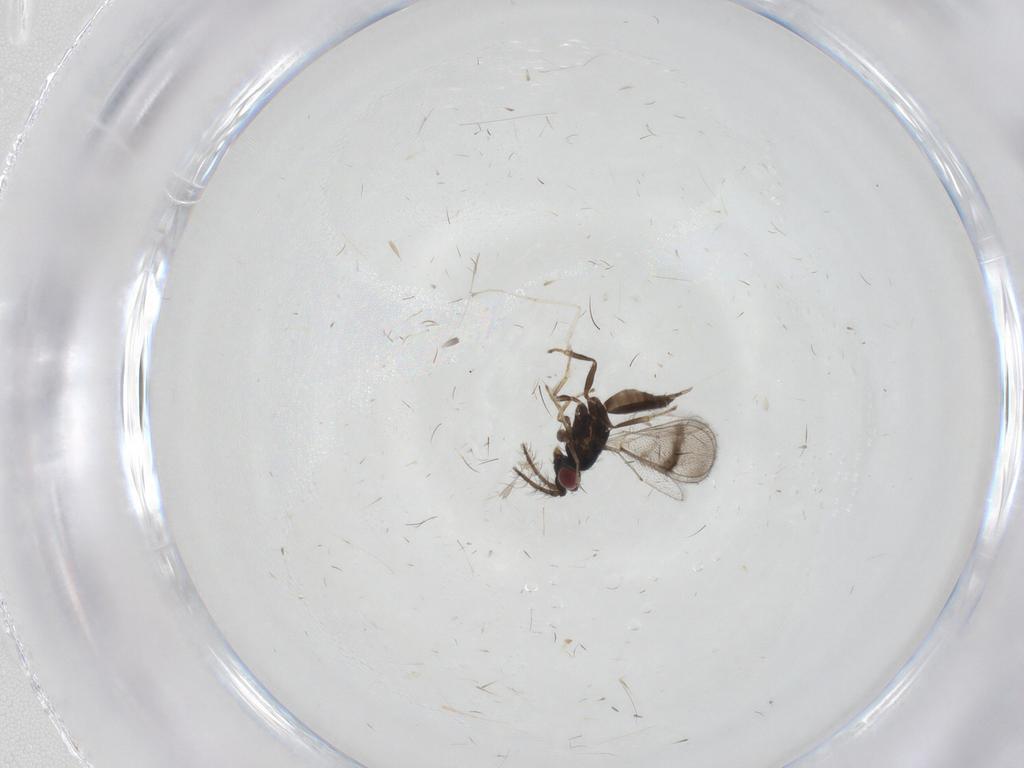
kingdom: Animalia
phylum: Arthropoda
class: Insecta
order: Hymenoptera
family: Eulophidae
